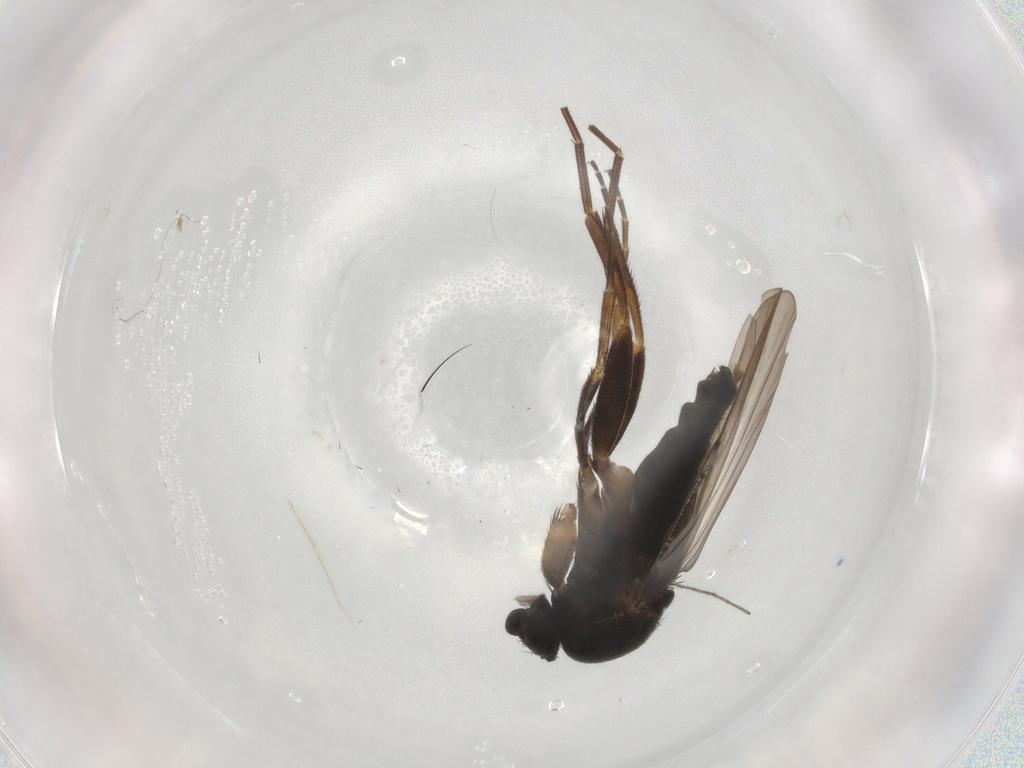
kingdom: Animalia
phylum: Arthropoda
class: Insecta
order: Diptera
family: Phoridae
